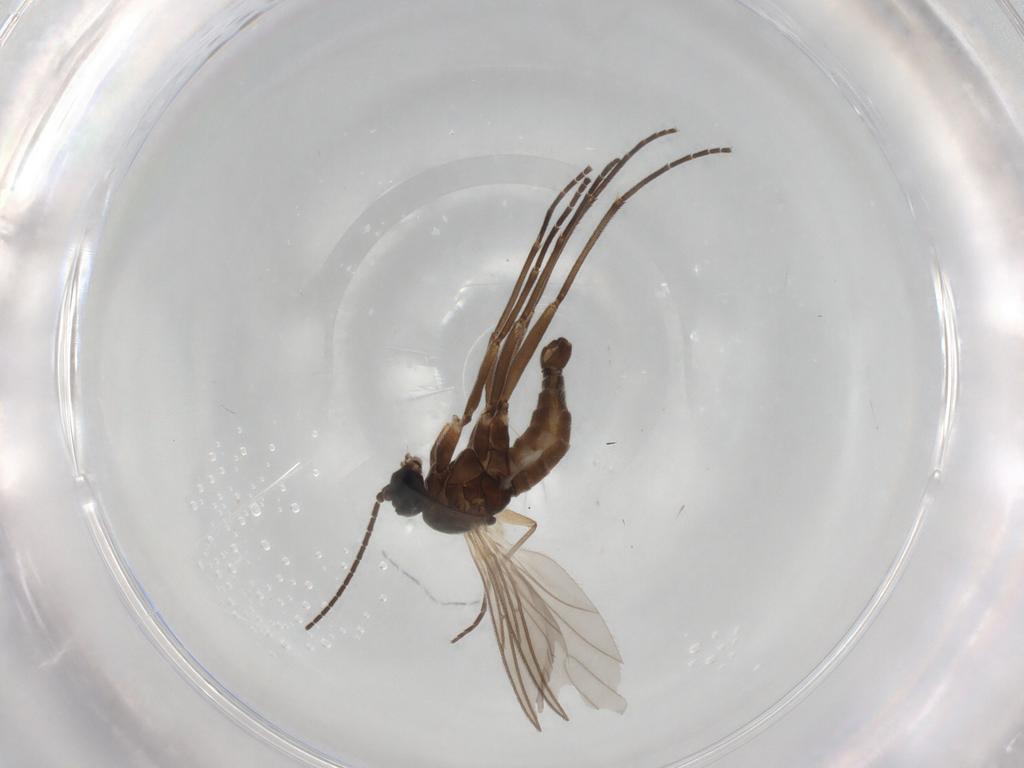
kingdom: Animalia
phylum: Arthropoda
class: Insecta
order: Diptera
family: Sciaridae
